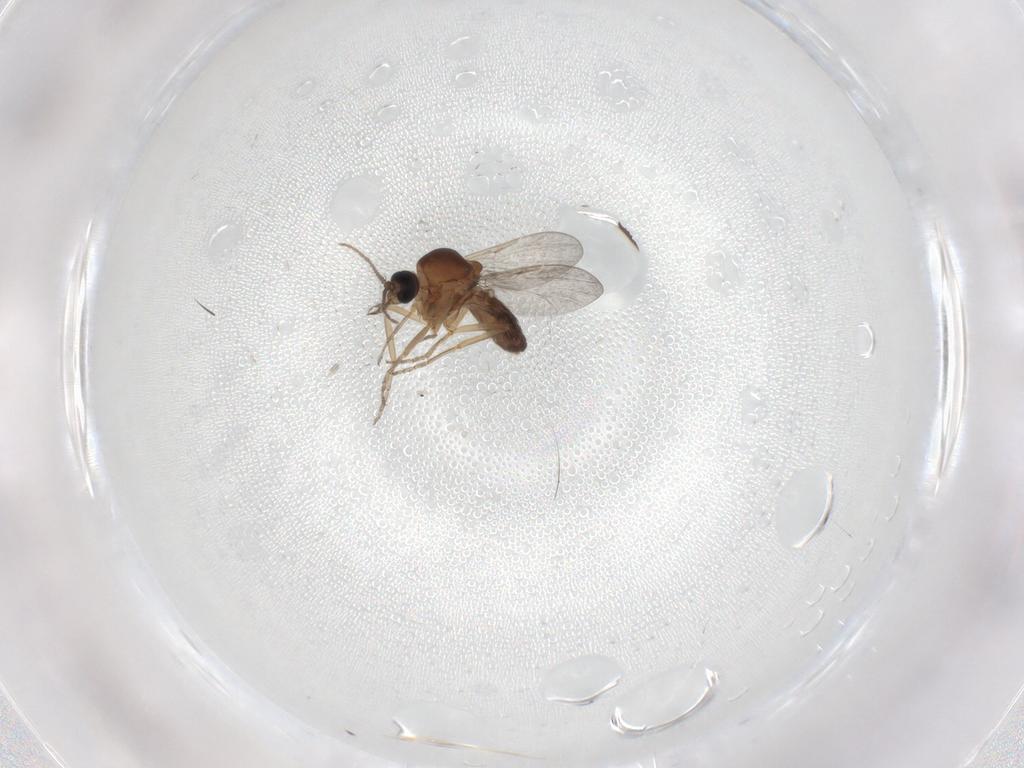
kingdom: Animalia
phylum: Arthropoda
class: Insecta
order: Diptera
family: Ceratopogonidae
